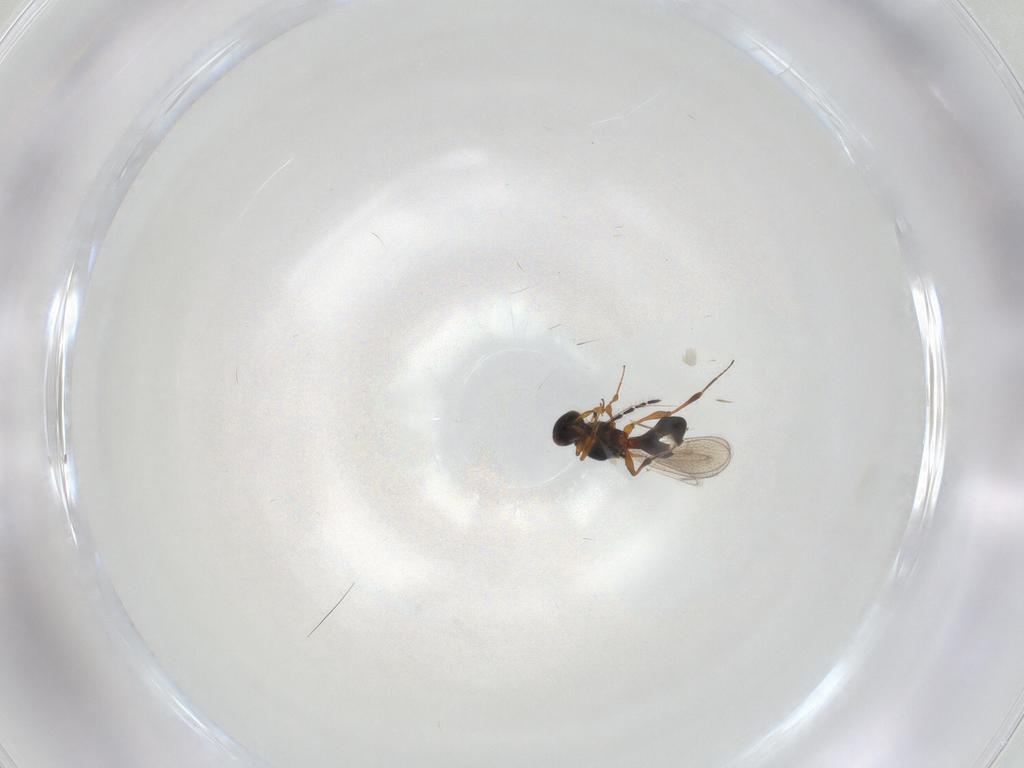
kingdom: Animalia
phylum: Arthropoda
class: Insecta
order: Hymenoptera
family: Platygastridae
